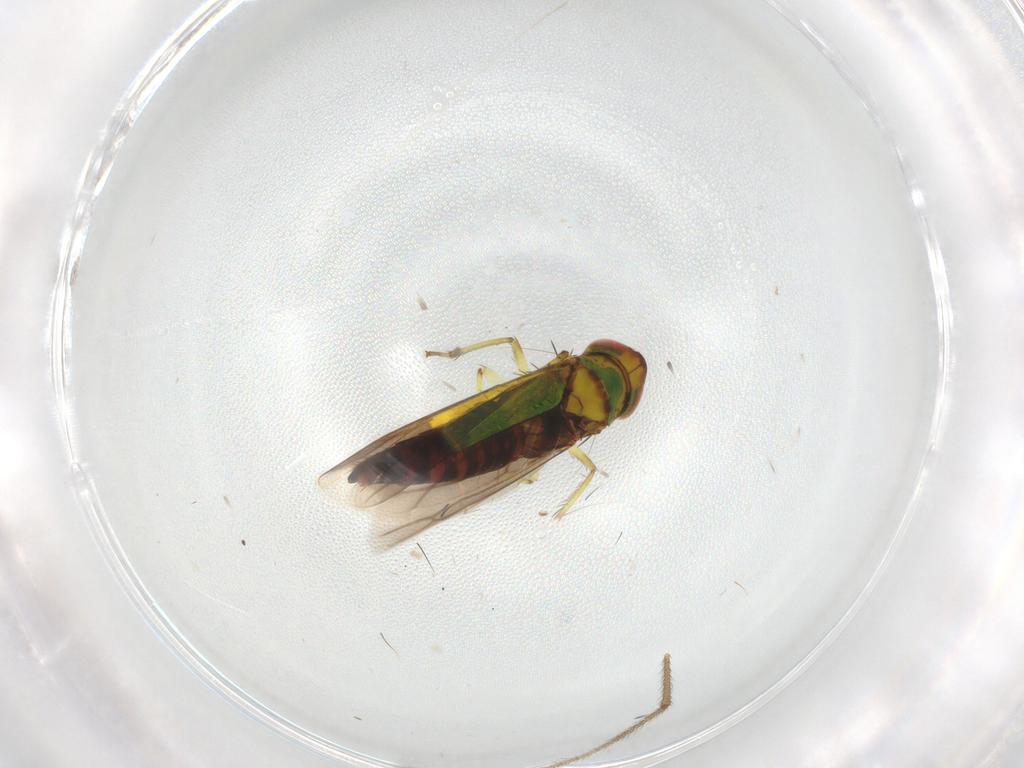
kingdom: Animalia
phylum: Arthropoda
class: Insecta
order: Hemiptera
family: Cicadellidae
